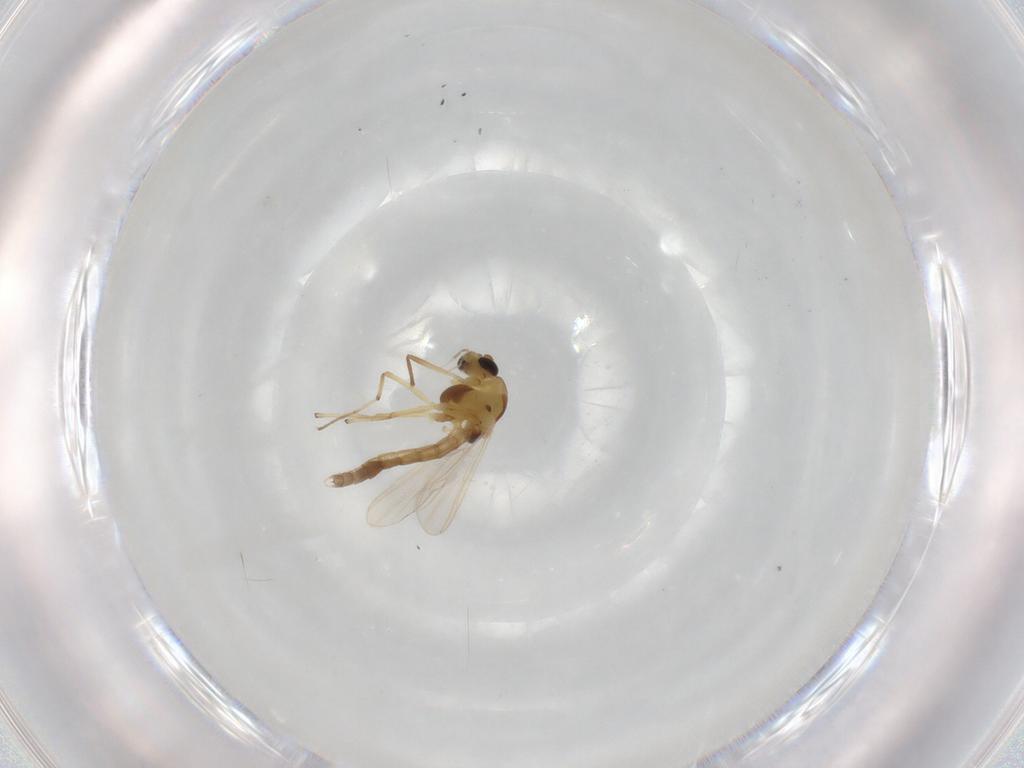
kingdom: Animalia
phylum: Arthropoda
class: Insecta
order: Diptera
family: Chironomidae
